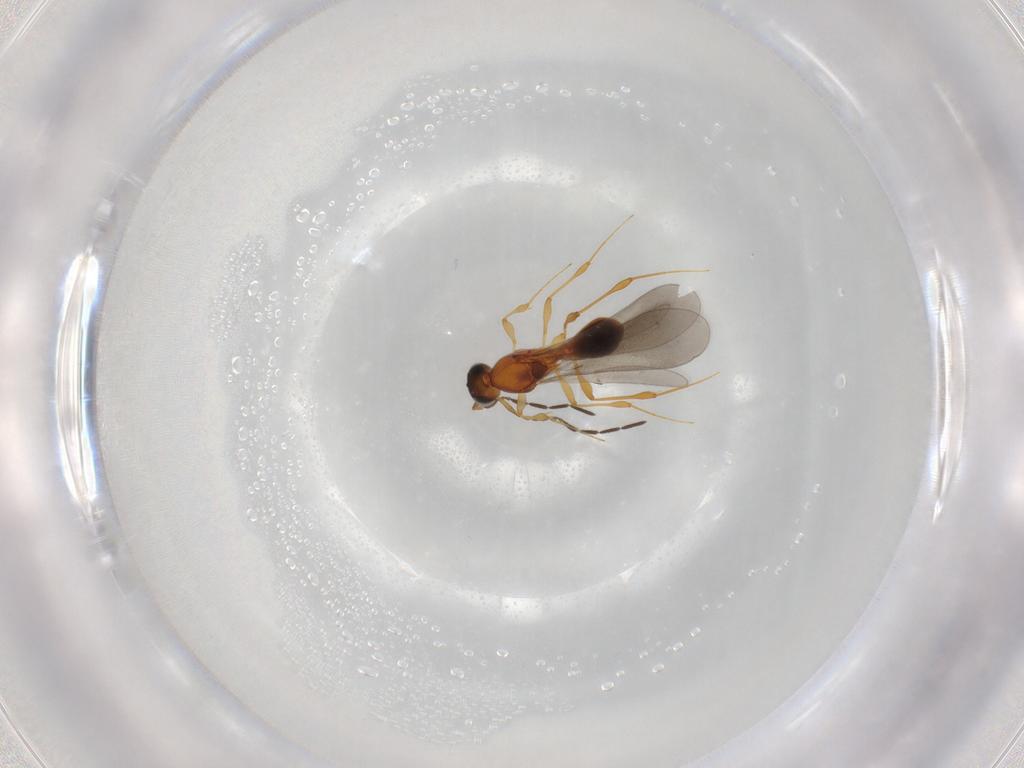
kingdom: Animalia
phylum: Arthropoda
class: Insecta
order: Hymenoptera
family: Platygastridae
